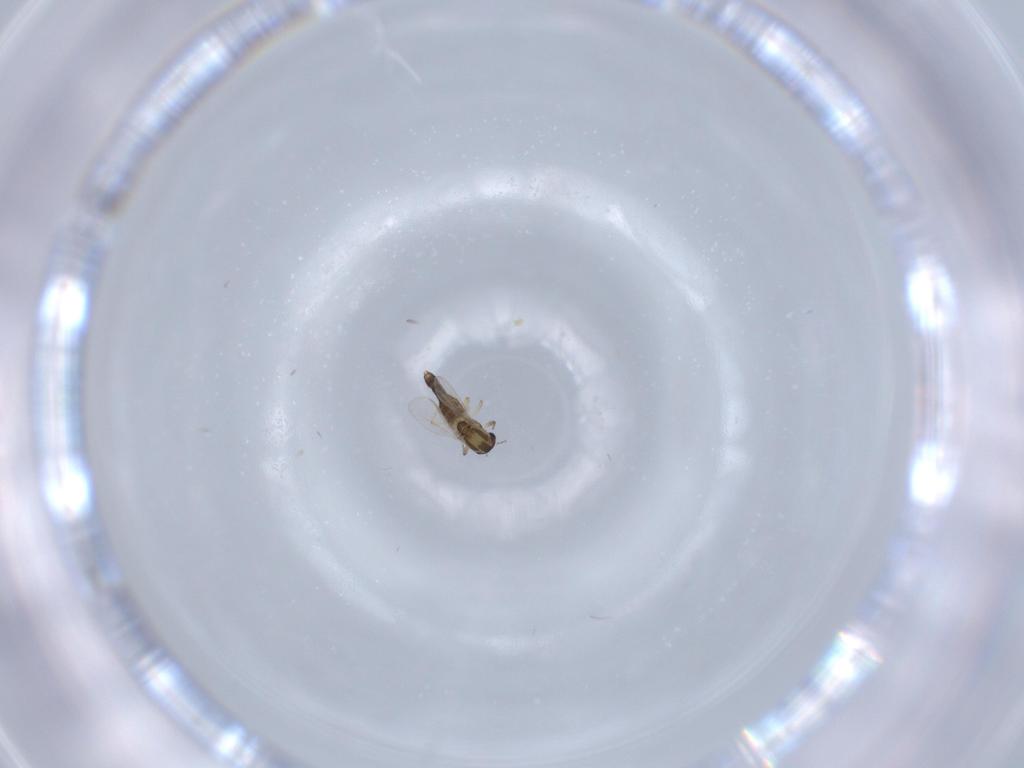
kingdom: Animalia
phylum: Arthropoda
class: Insecta
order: Diptera
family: Chironomidae
